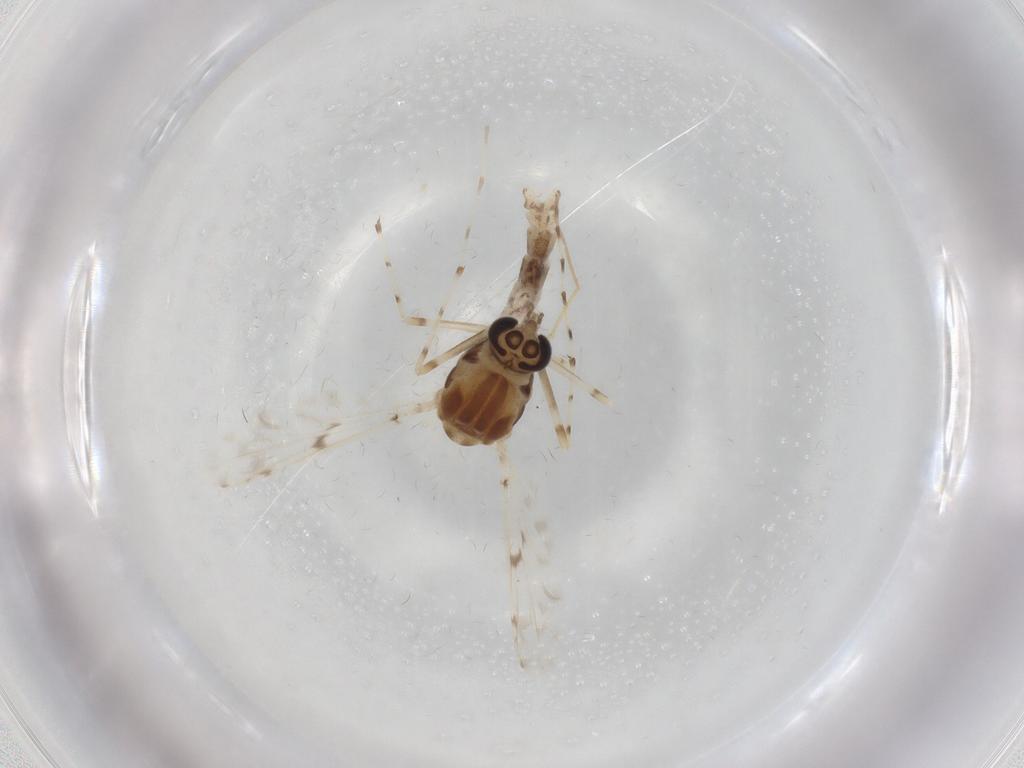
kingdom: Animalia
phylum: Arthropoda
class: Insecta
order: Diptera
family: Chironomidae
